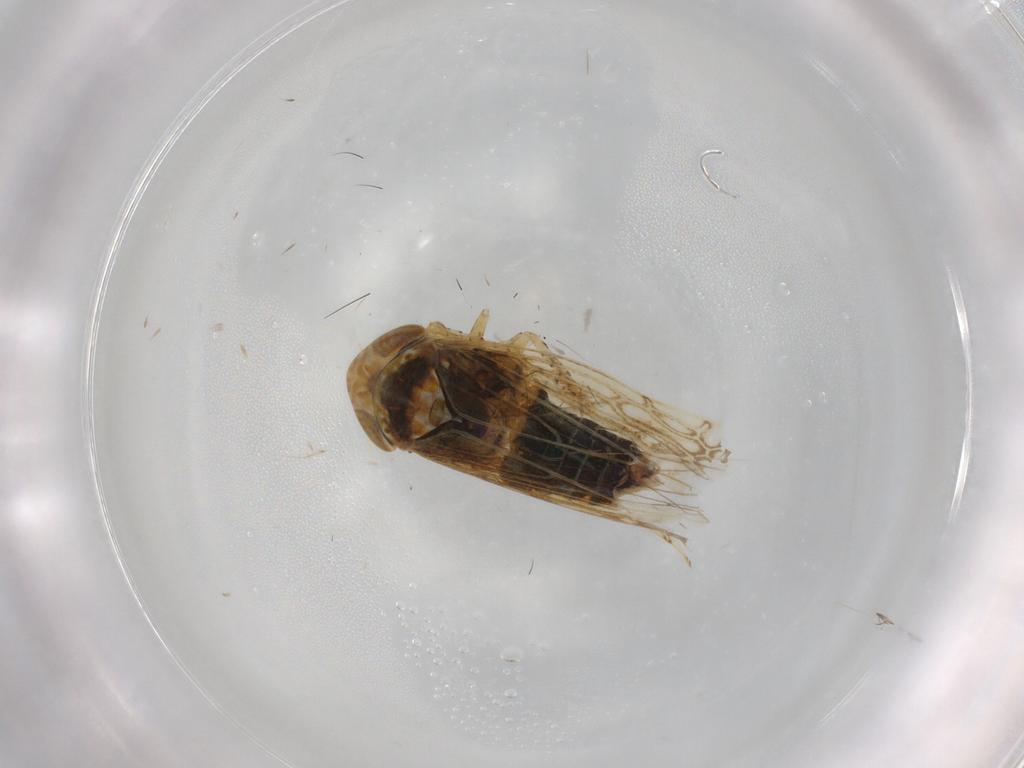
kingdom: Animalia
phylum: Arthropoda
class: Insecta
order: Hemiptera
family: Cicadellidae
